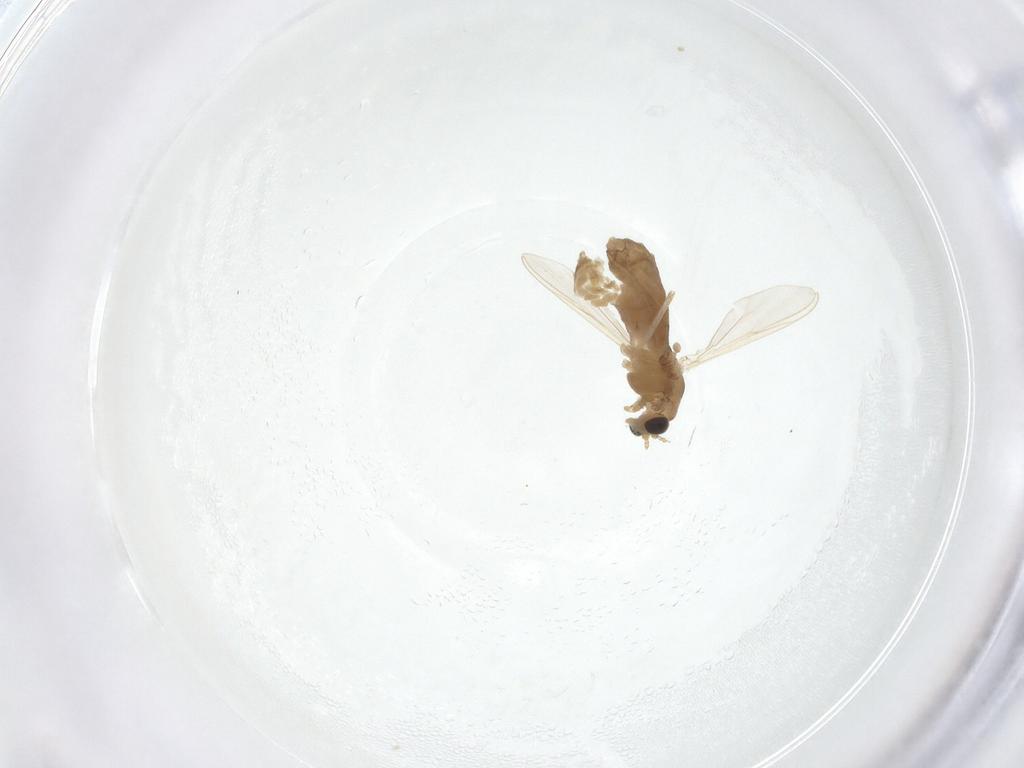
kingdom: Animalia
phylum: Arthropoda
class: Insecta
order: Diptera
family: Chironomidae
